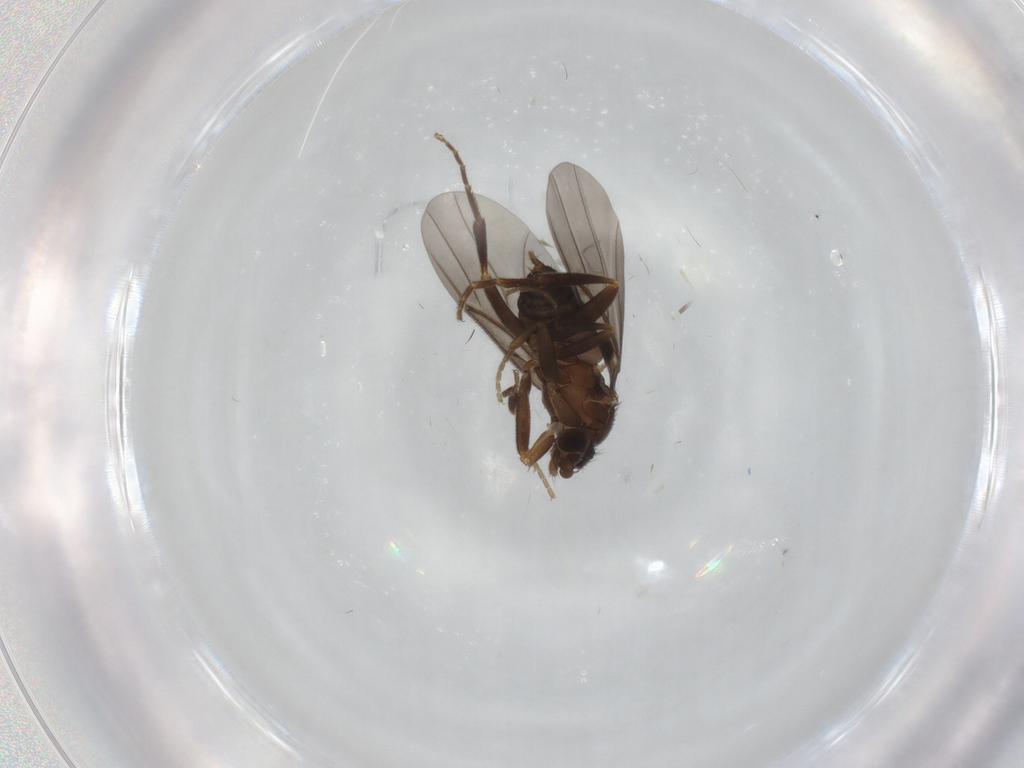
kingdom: Animalia
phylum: Arthropoda
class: Insecta
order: Diptera
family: Phoridae
